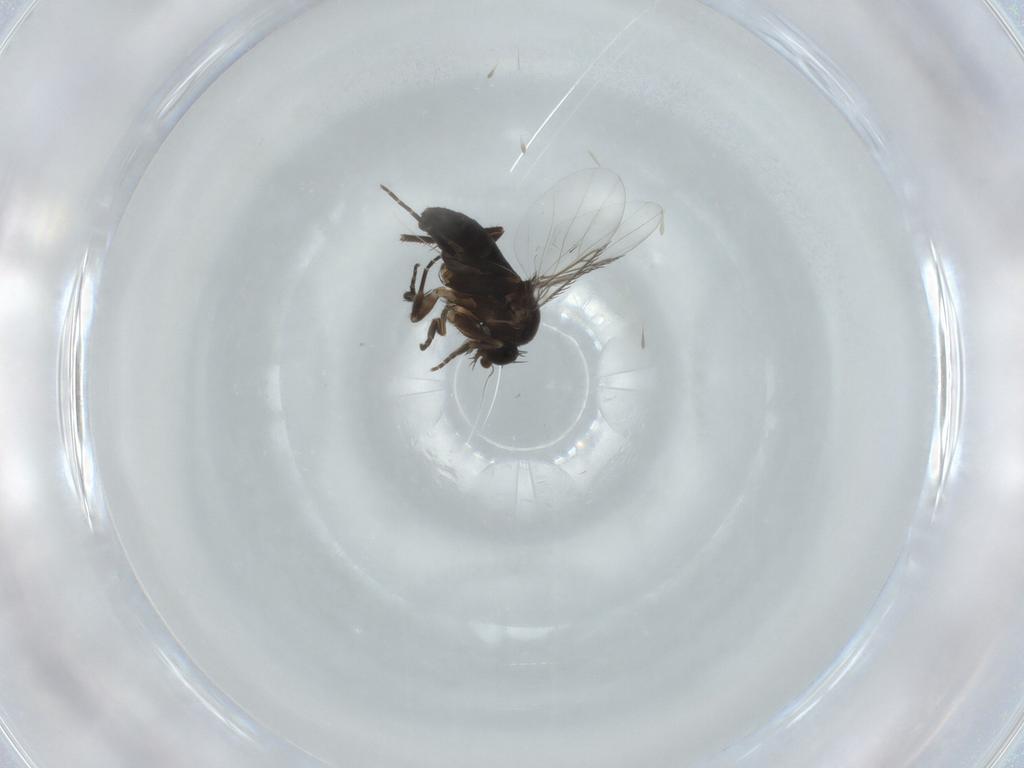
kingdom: Animalia
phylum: Arthropoda
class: Insecta
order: Diptera
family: Phoridae
